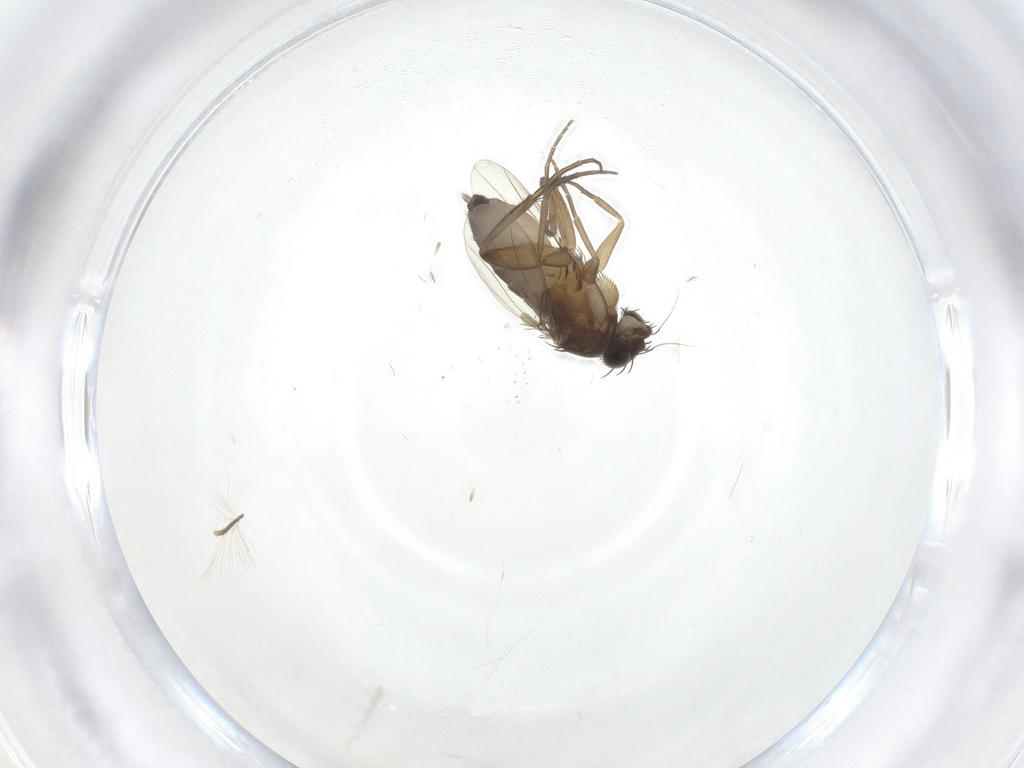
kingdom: Animalia
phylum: Arthropoda
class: Insecta
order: Diptera
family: Phoridae
